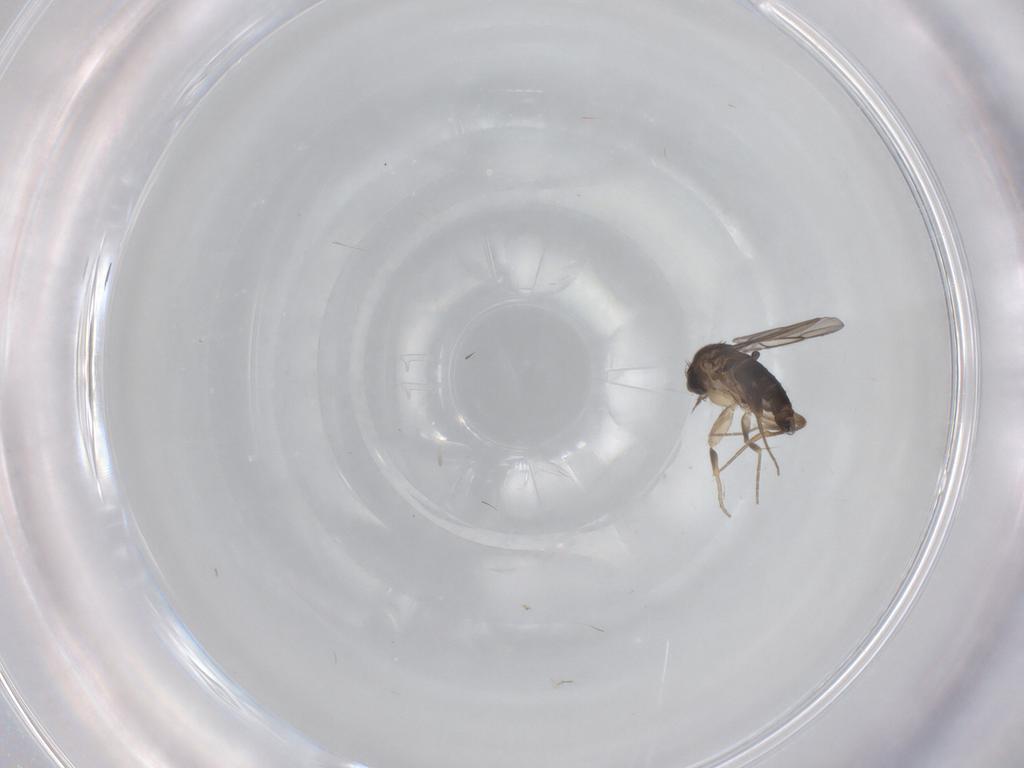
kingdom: Animalia
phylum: Arthropoda
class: Insecta
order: Diptera
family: Phoridae
